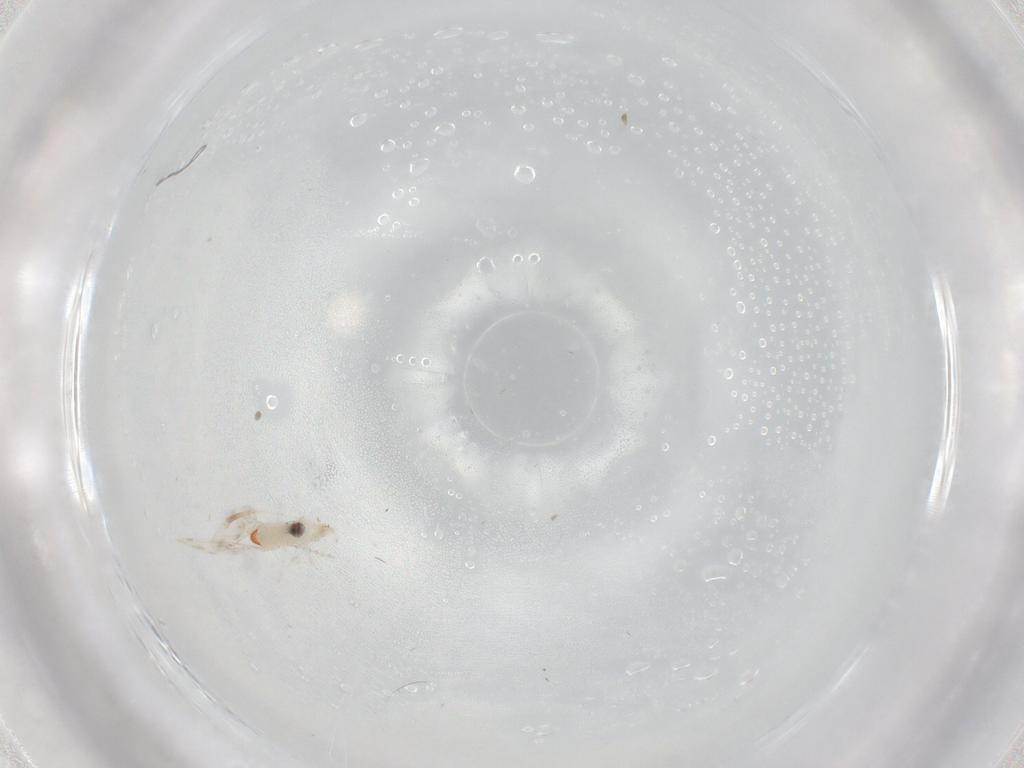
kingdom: Animalia
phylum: Arthropoda
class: Insecta
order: Diptera
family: Cecidomyiidae
